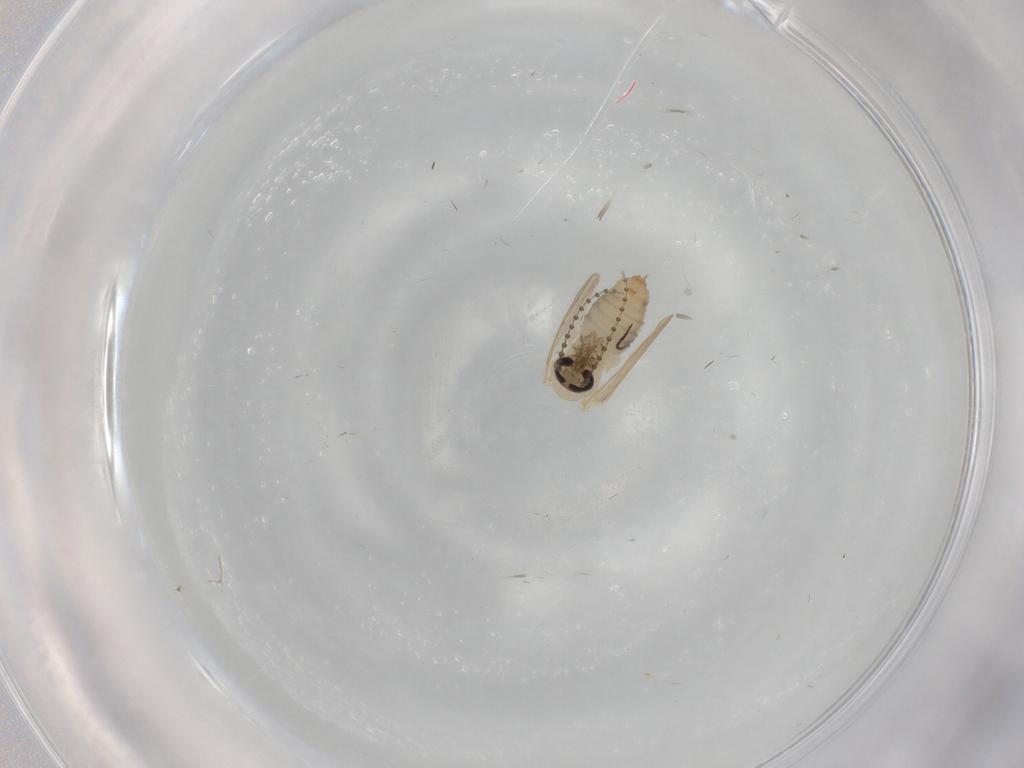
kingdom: Animalia
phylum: Arthropoda
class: Insecta
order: Diptera
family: Psychodidae
